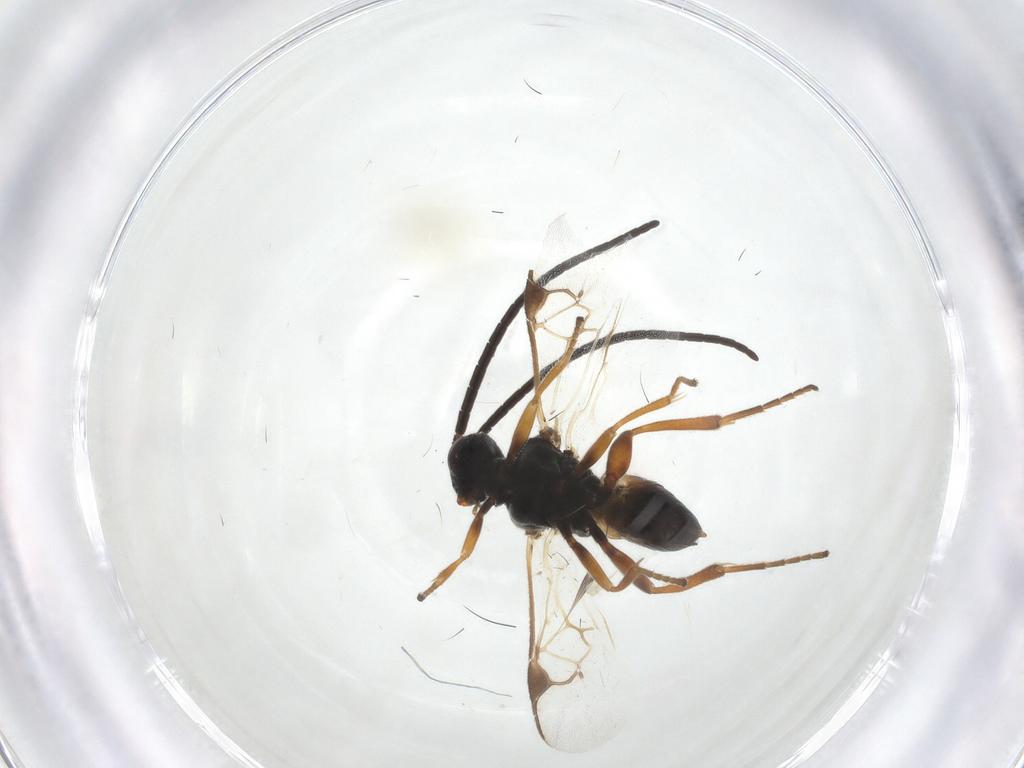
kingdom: Animalia
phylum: Arthropoda
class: Insecta
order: Hymenoptera
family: Braconidae
